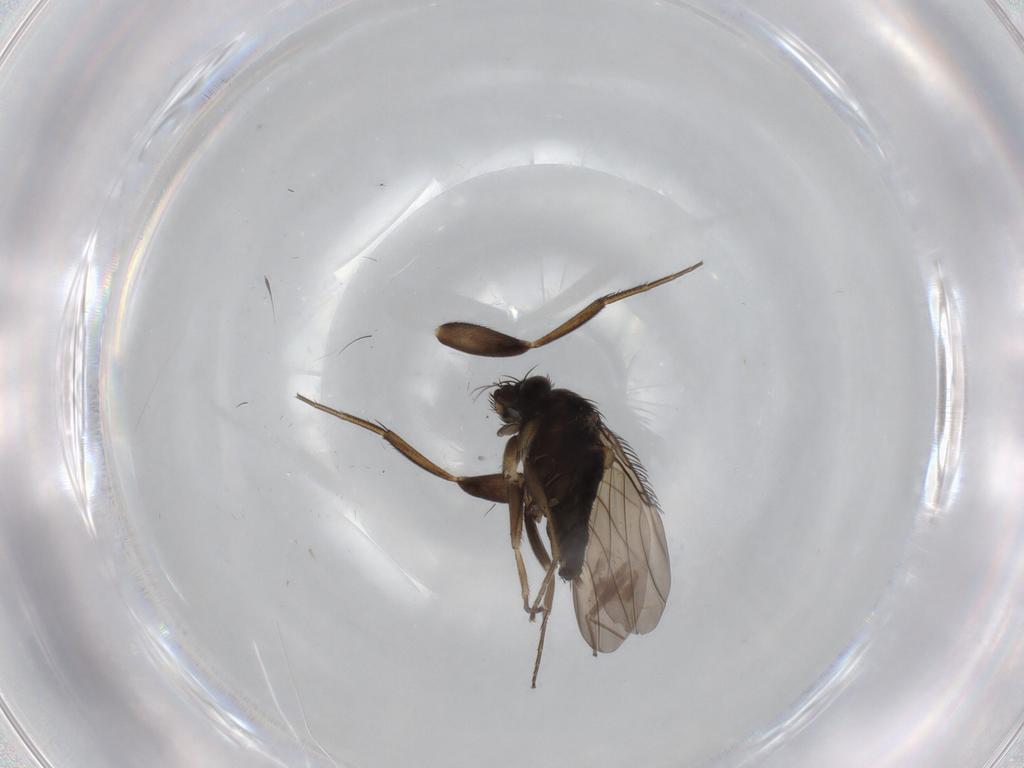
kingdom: Animalia
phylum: Arthropoda
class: Insecta
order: Diptera
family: Phoridae
